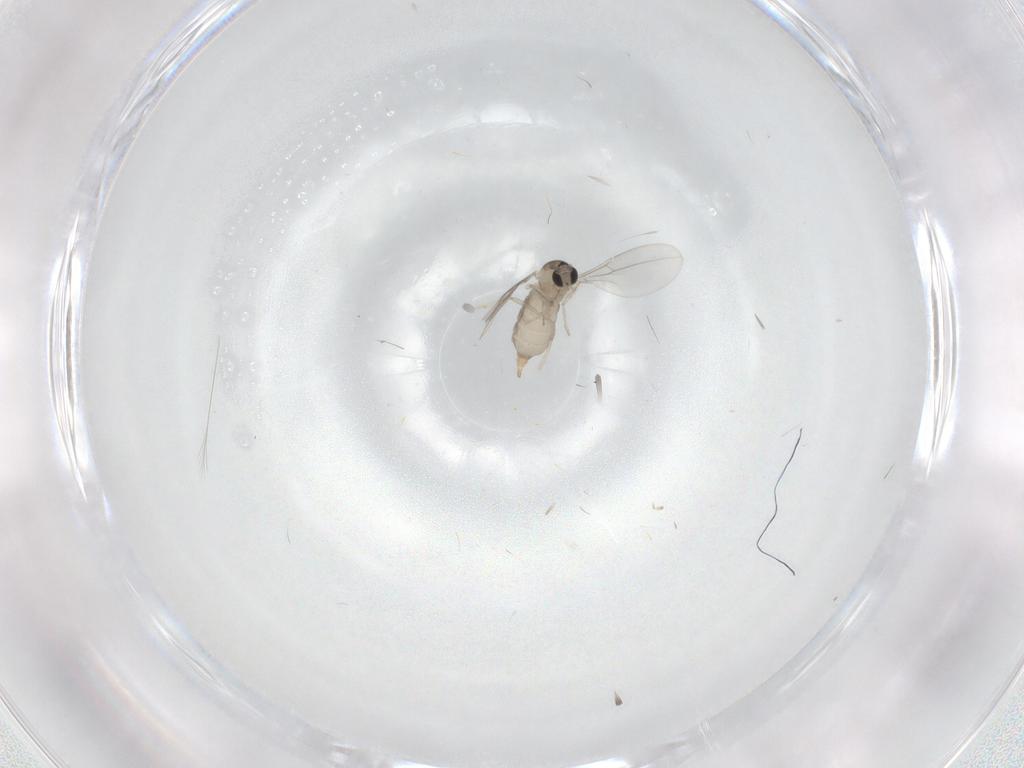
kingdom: Animalia
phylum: Arthropoda
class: Insecta
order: Diptera
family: Cecidomyiidae
